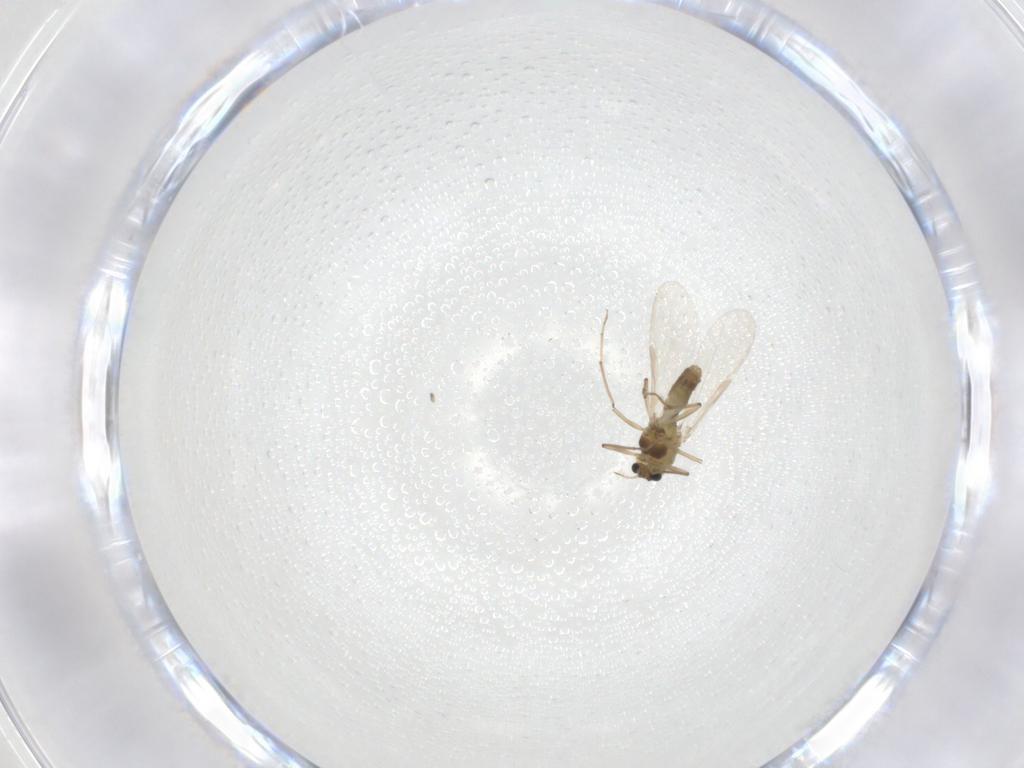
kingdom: Animalia
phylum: Arthropoda
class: Insecta
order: Diptera
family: Chironomidae
